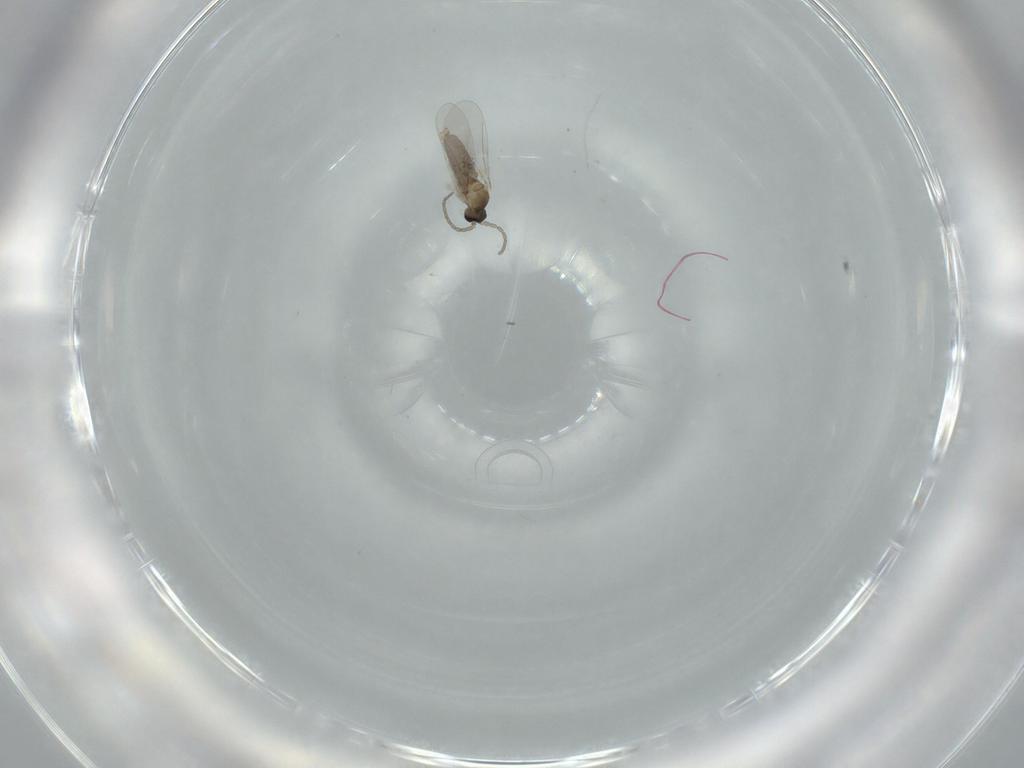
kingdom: Animalia
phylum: Arthropoda
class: Insecta
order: Diptera
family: Cecidomyiidae
